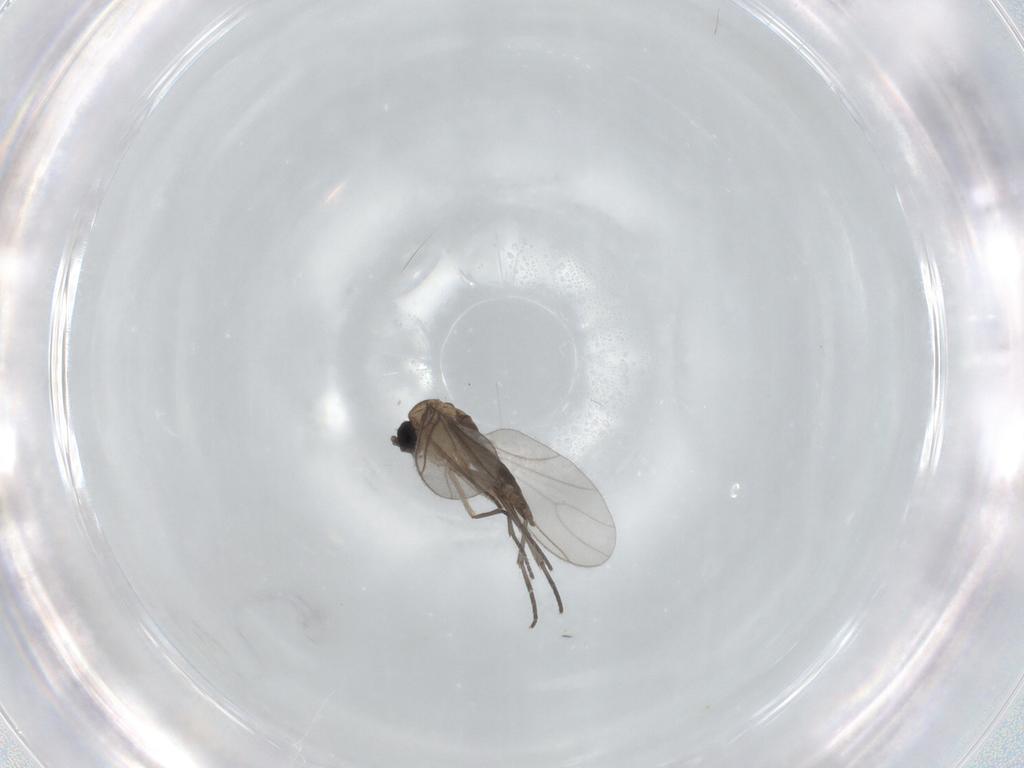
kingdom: Animalia
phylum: Arthropoda
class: Insecta
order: Diptera
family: Sciaridae
